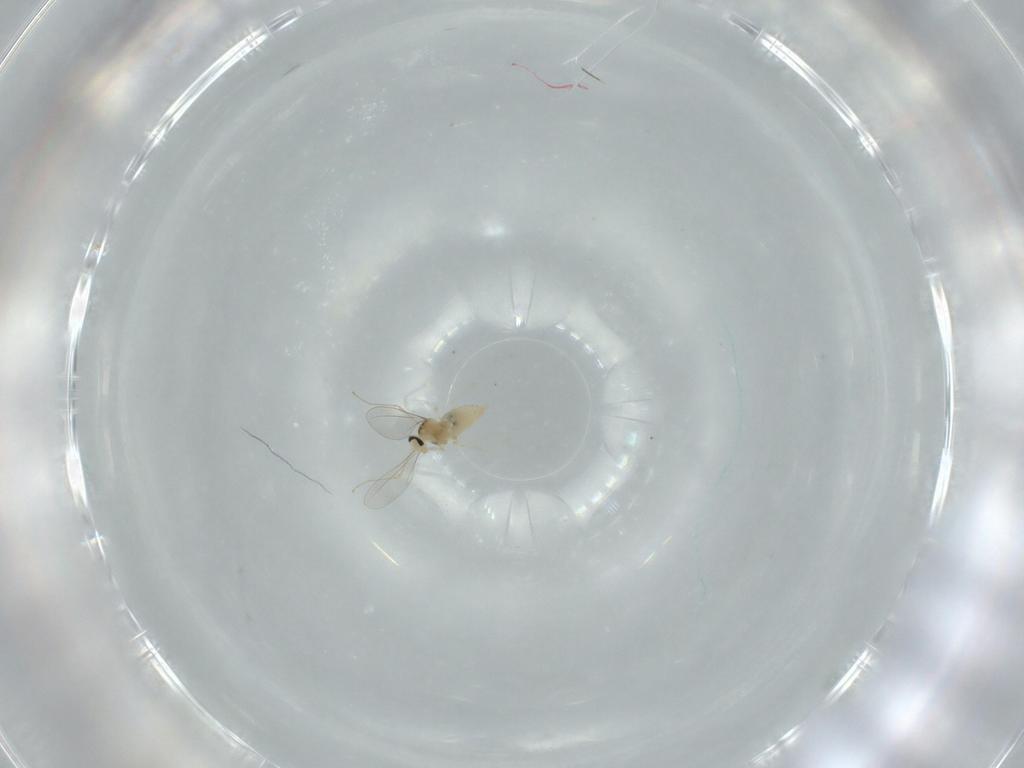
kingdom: Animalia
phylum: Arthropoda
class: Insecta
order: Diptera
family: Cecidomyiidae
